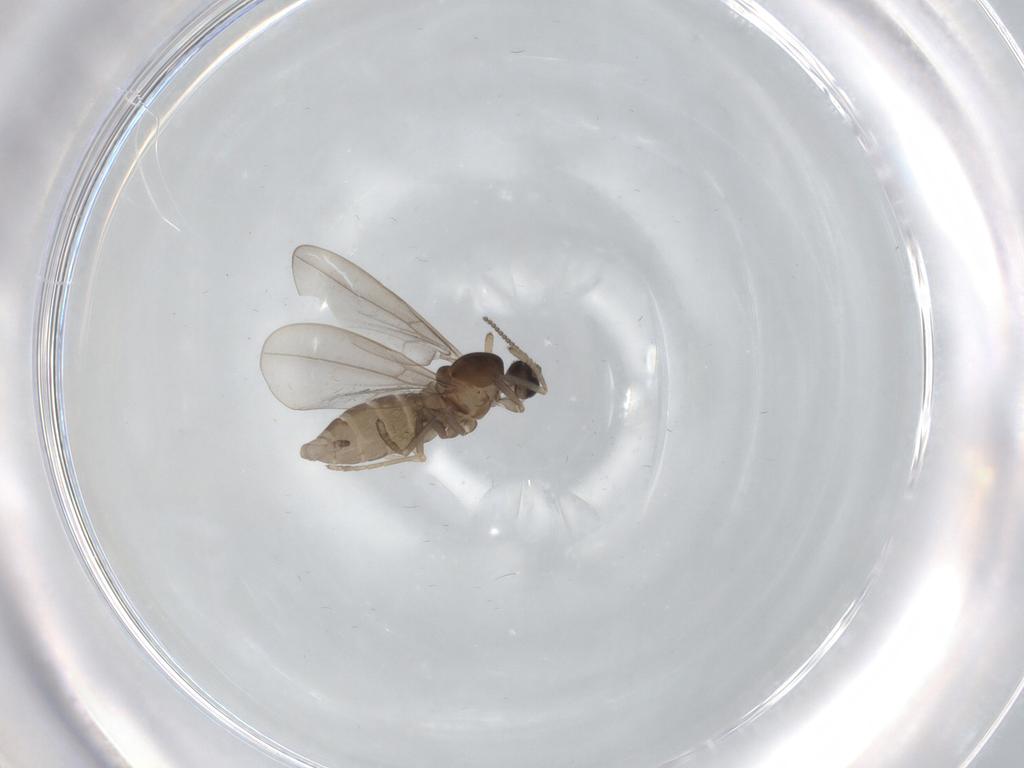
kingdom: Animalia
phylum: Arthropoda
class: Insecta
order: Diptera
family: Cecidomyiidae
